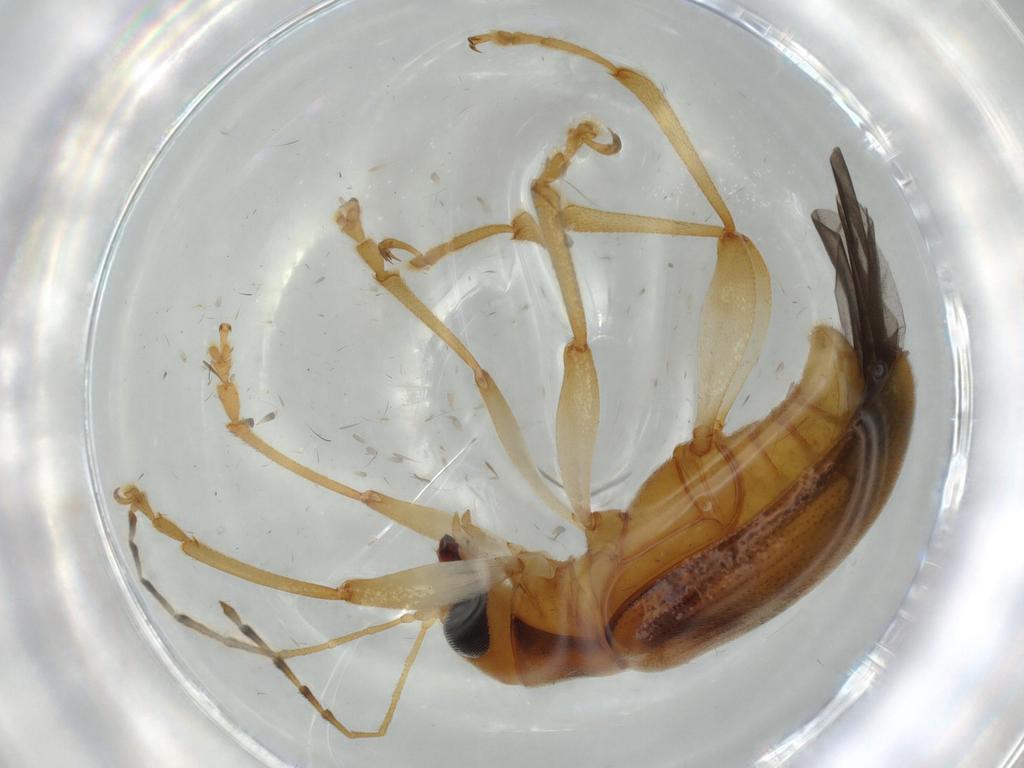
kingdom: Animalia
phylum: Arthropoda
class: Insecta
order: Coleoptera
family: Chrysomelidae
